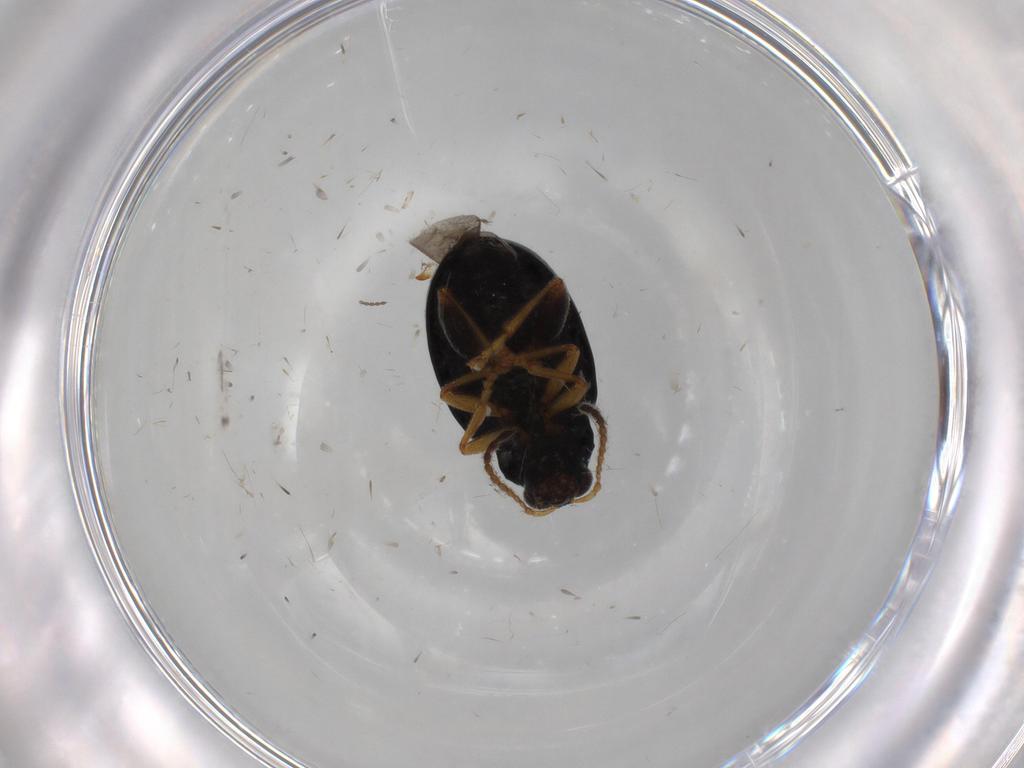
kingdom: Animalia
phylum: Arthropoda
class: Insecta
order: Coleoptera
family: Chrysomelidae
